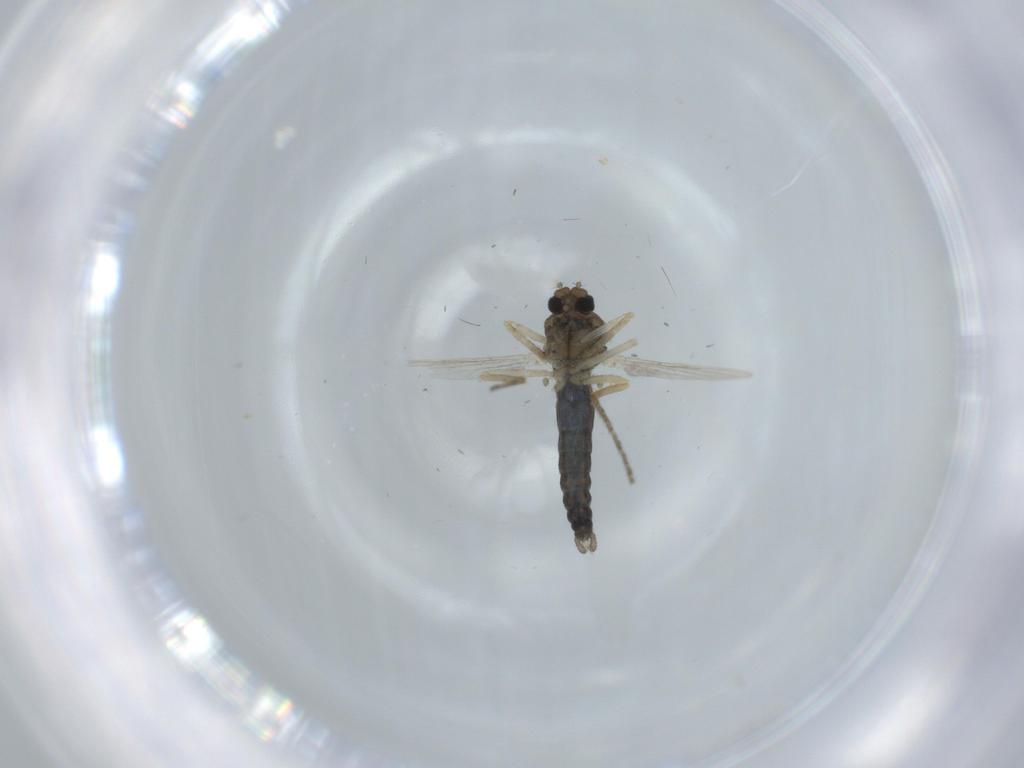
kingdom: Animalia
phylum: Arthropoda
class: Insecta
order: Diptera
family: Ceratopogonidae
